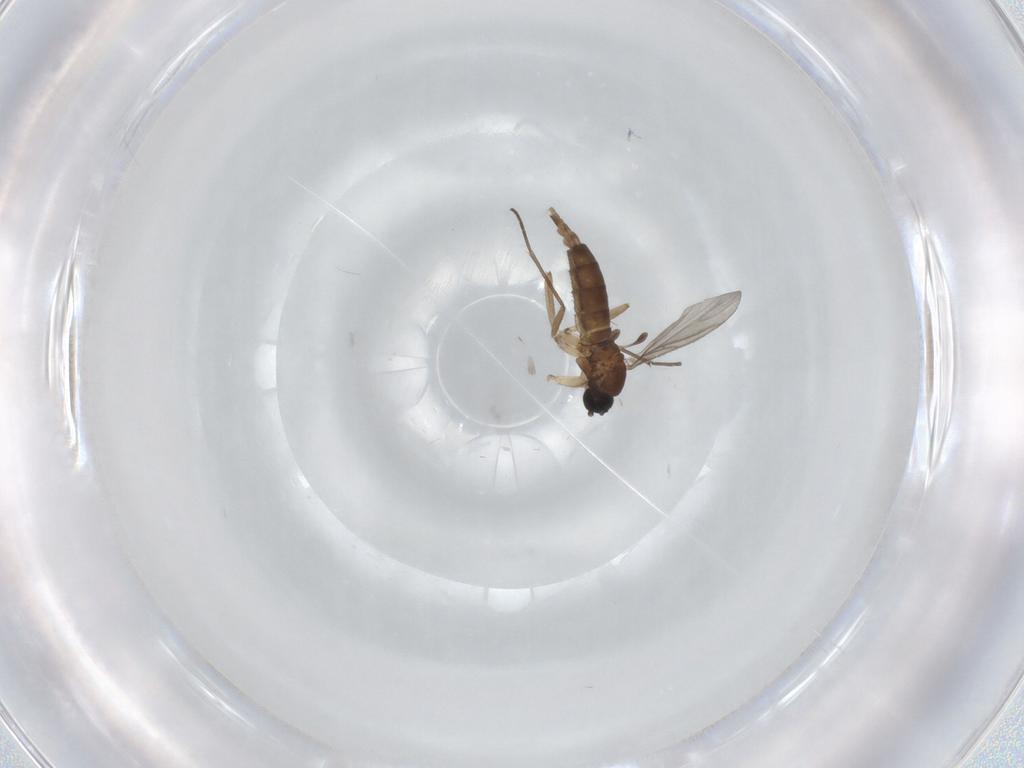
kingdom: Animalia
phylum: Arthropoda
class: Insecta
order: Diptera
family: Sciaridae
